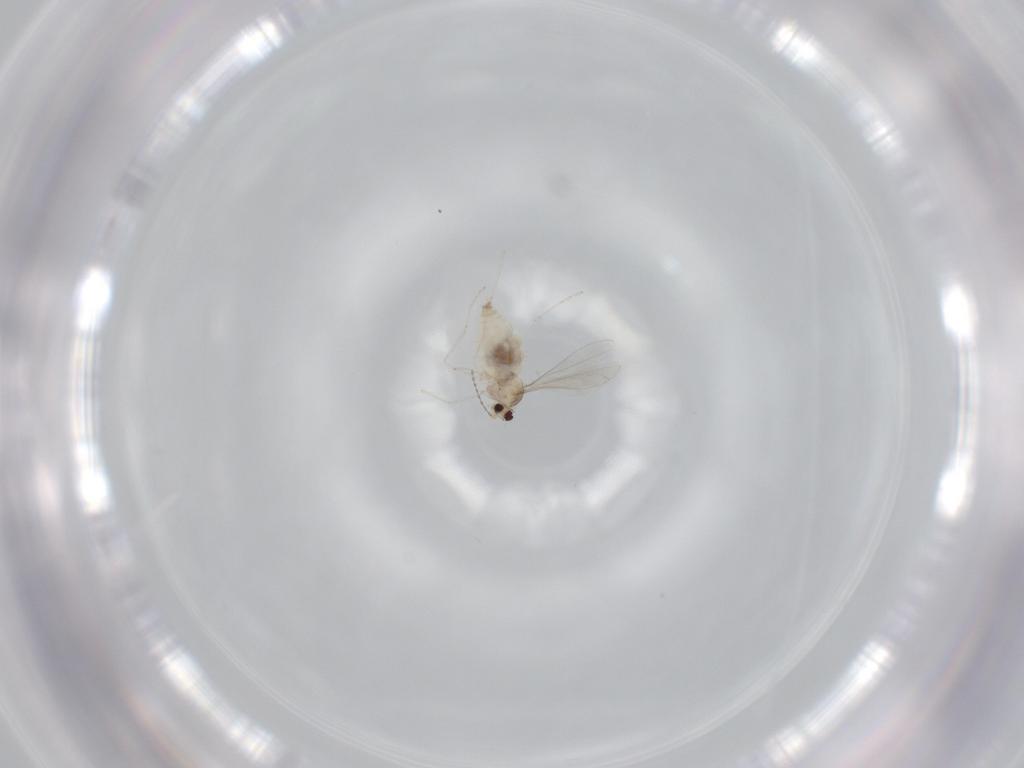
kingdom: Animalia
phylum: Arthropoda
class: Insecta
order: Diptera
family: Cecidomyiidae
